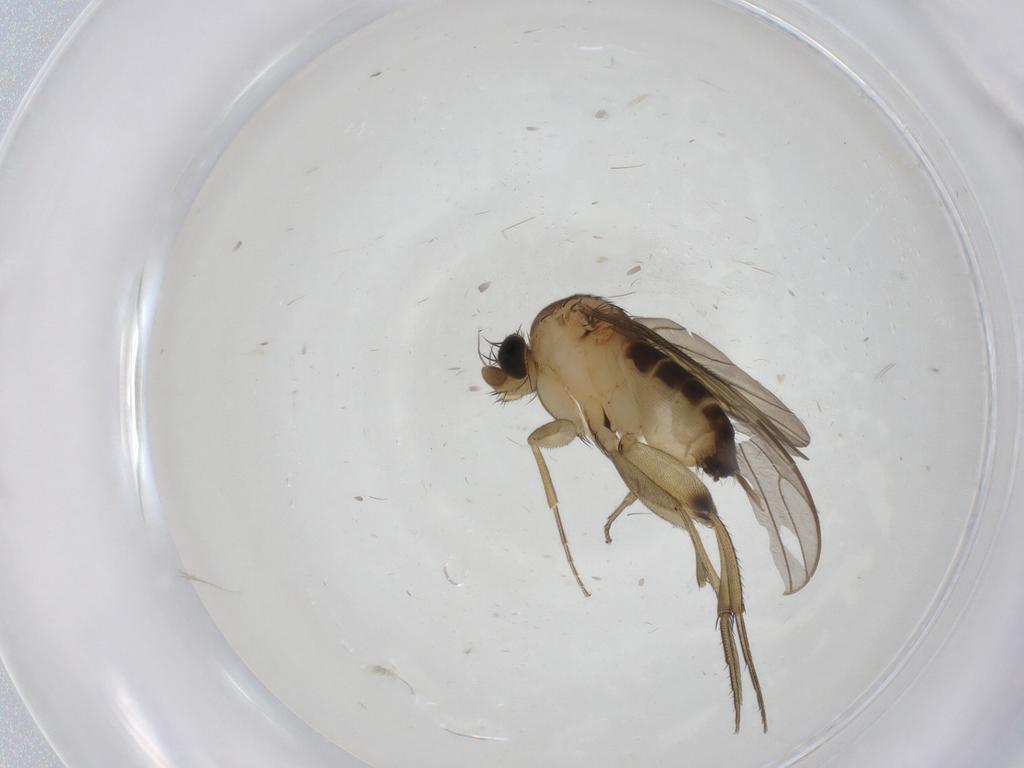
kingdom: Animalia
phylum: Arthropoda
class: Insecta
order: Diptera
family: Phoridae
